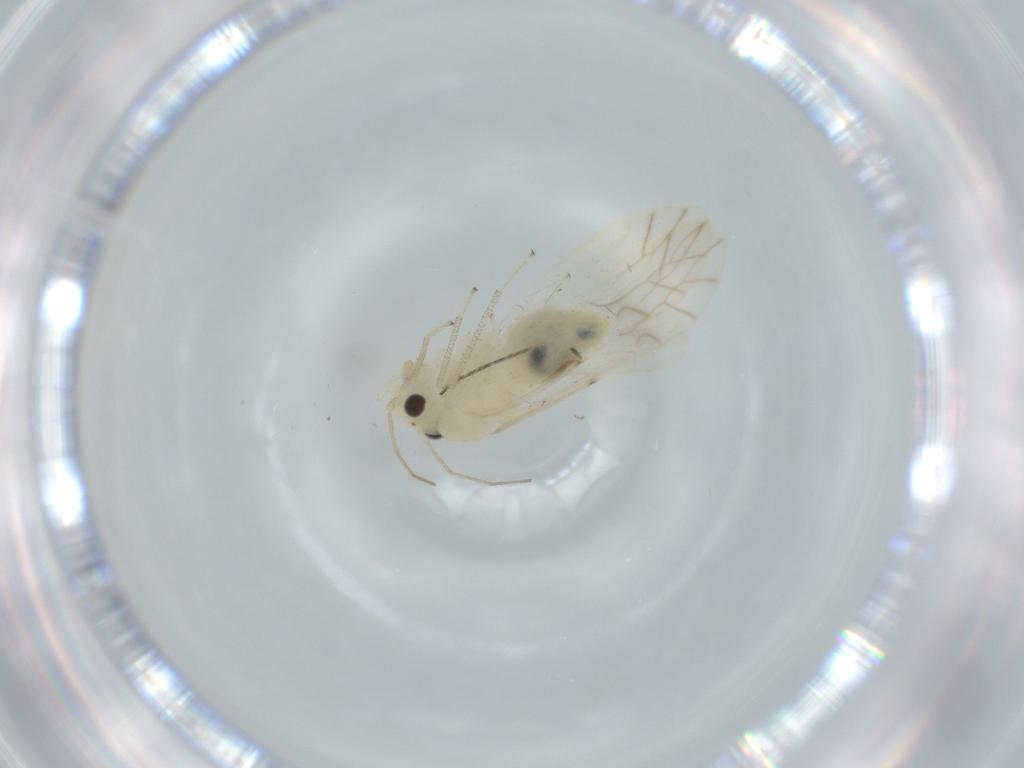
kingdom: Animalia
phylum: Arthropoda
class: Insecta
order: Psocodea
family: Caeciliusidae
